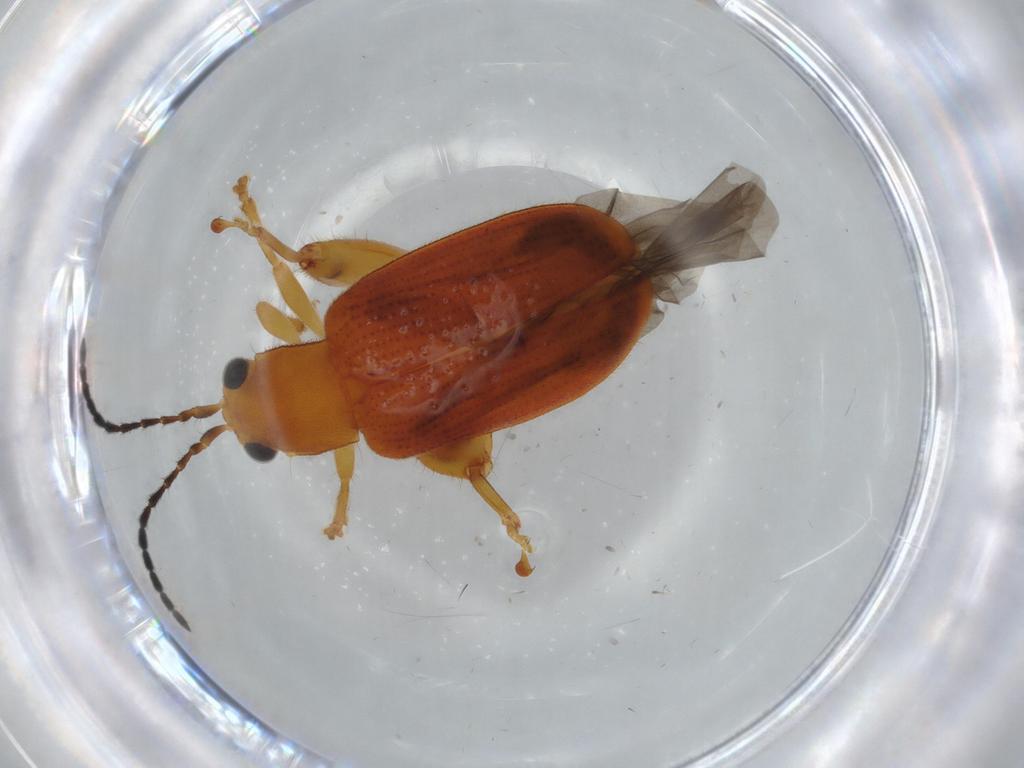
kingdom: Animalia
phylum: Arthropoda
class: Insecta
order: Coleoptera
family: Chrysomelidae
